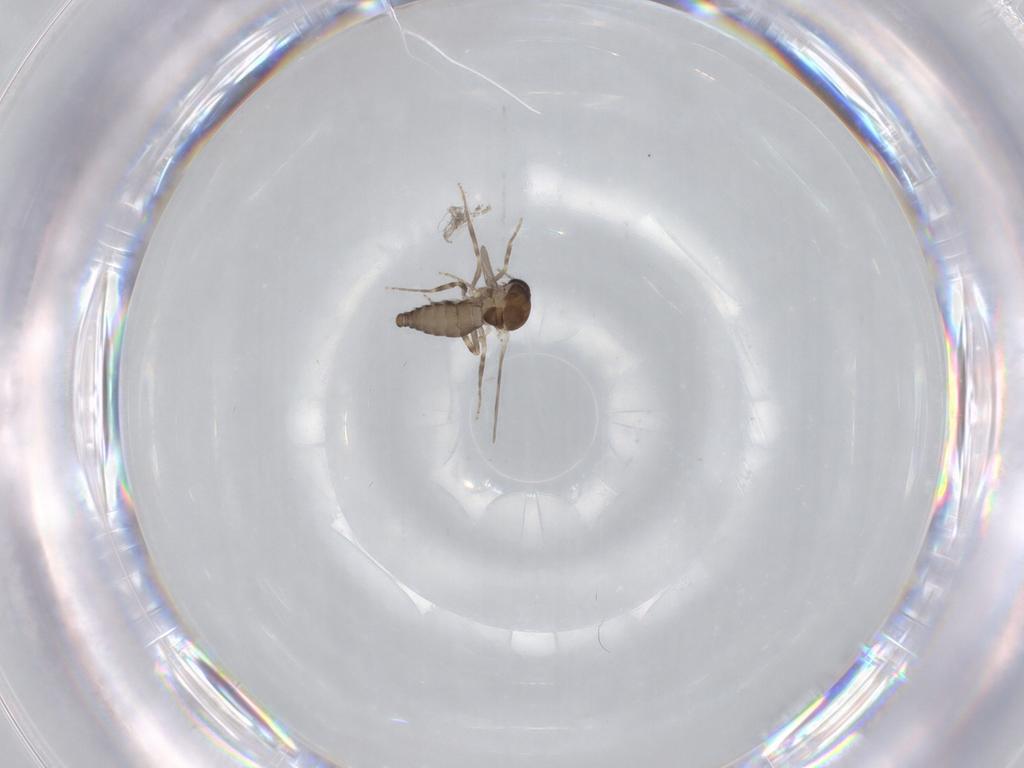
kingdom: Animalia
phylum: Arthropoda
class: Insecta
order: Diptera
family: Ceratopogonidae
